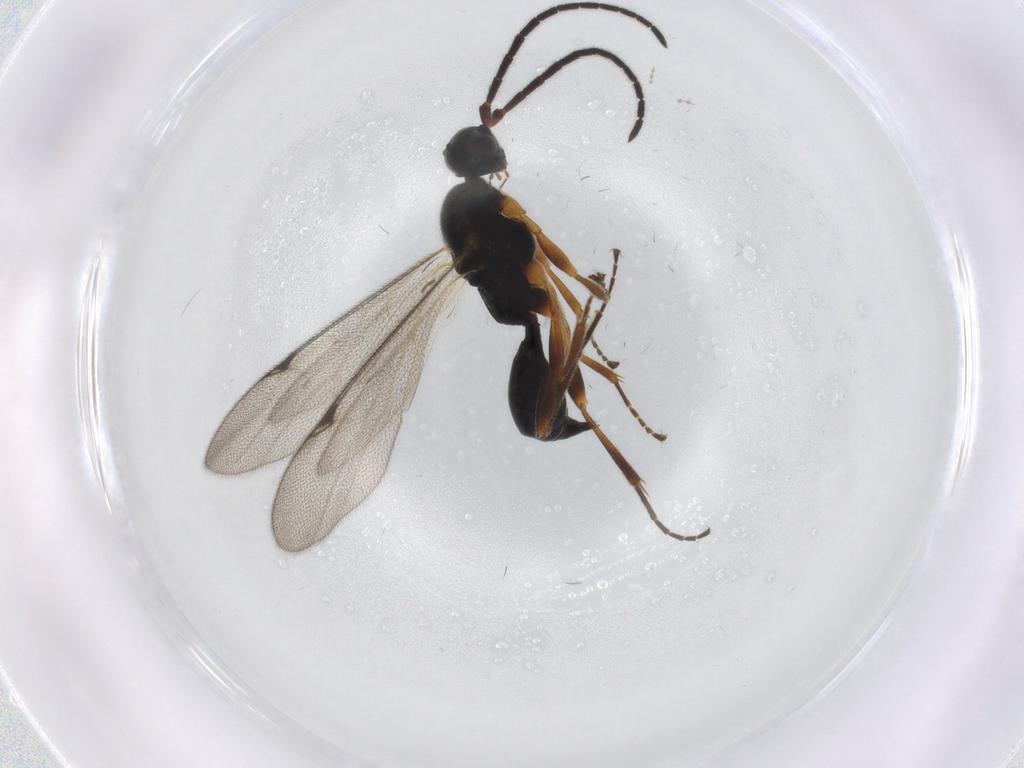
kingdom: Animalia
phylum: Arthropoda
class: Insecta
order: Hymenoptera
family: Proctotrupidae
